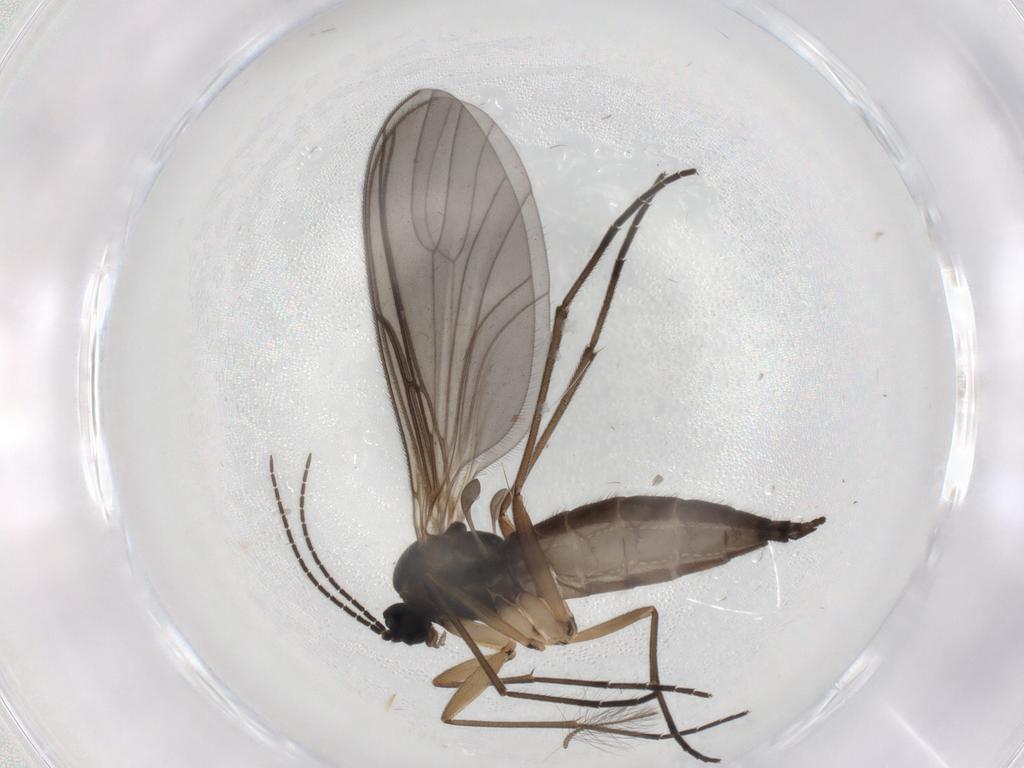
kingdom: Animalia
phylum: Arthropoda
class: Insecta
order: Diptera
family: Sciaridae
